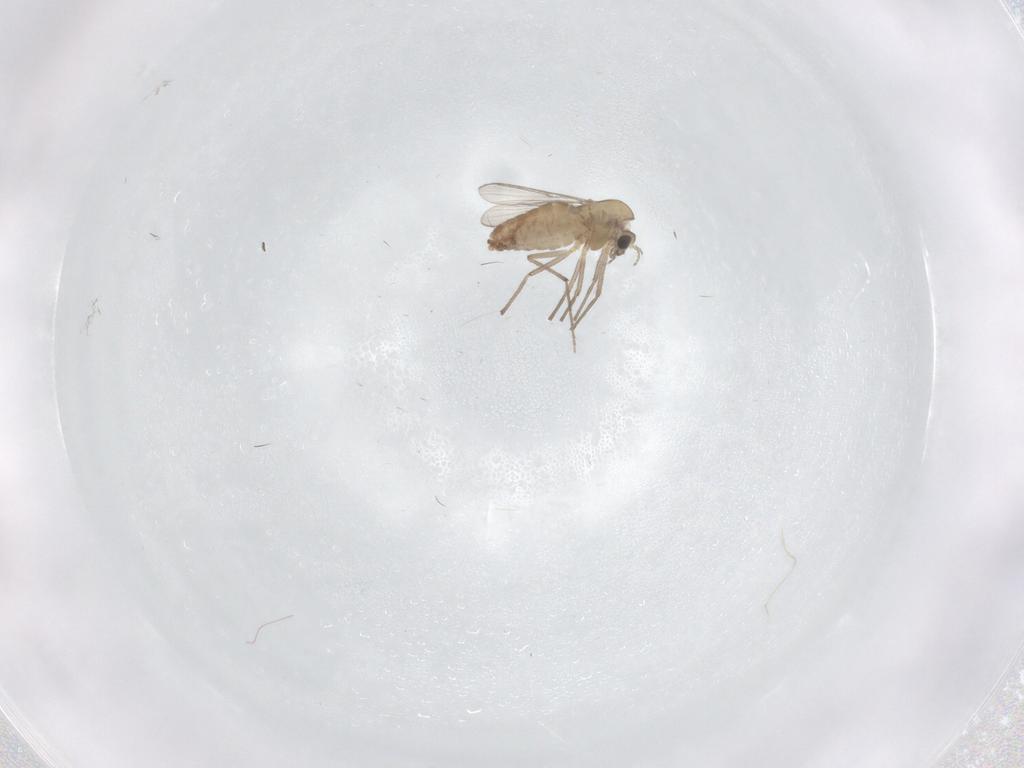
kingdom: Animalia
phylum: Arthropoda
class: Insecta
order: Diptera
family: Chironomidae
